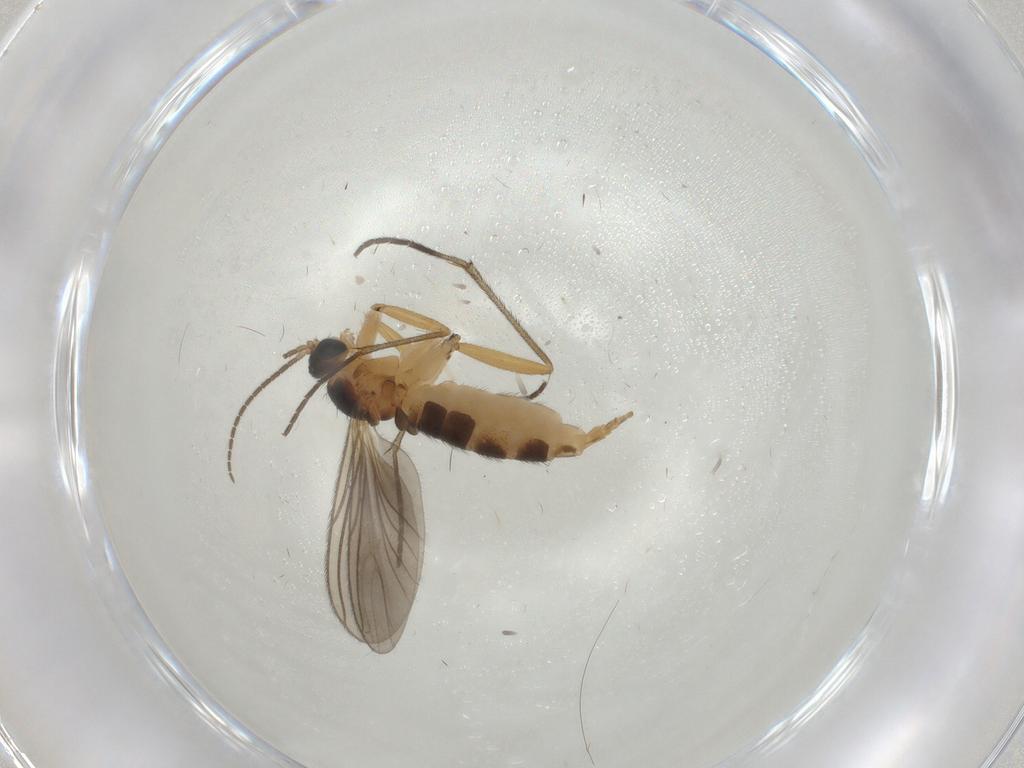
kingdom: Animalia
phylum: Arthropoda
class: Insecta
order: Diptera
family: Sciaridae
